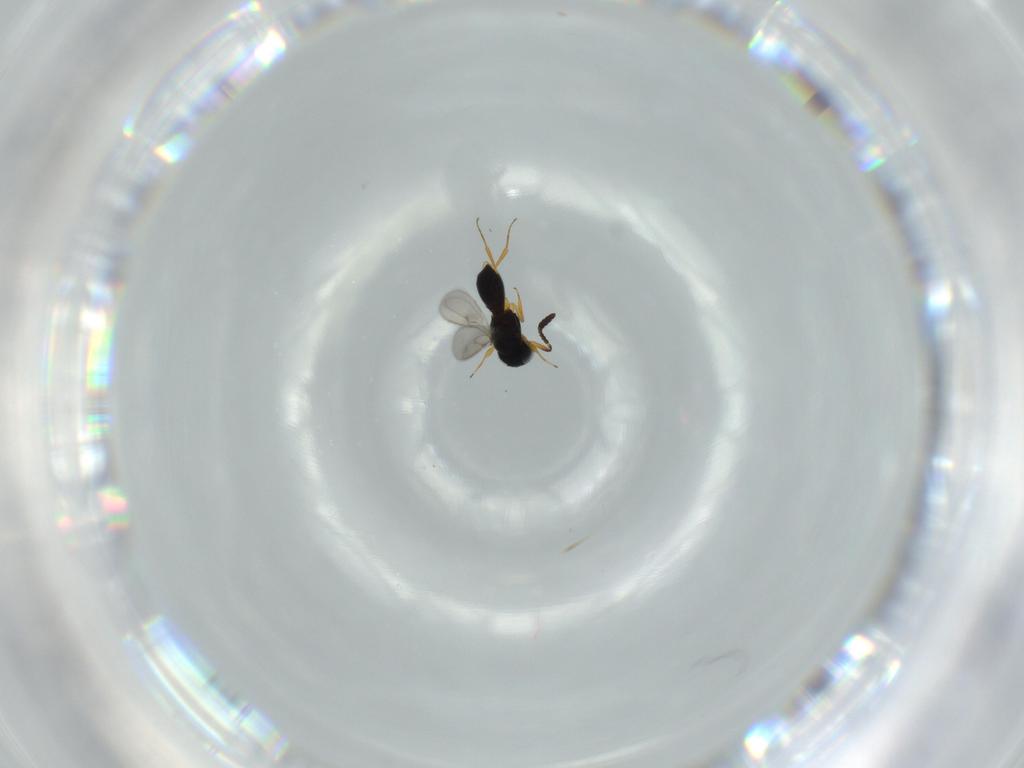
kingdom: Animalia
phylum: Arthropoda
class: Insecta
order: Hymenoptera
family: Scelionidae
